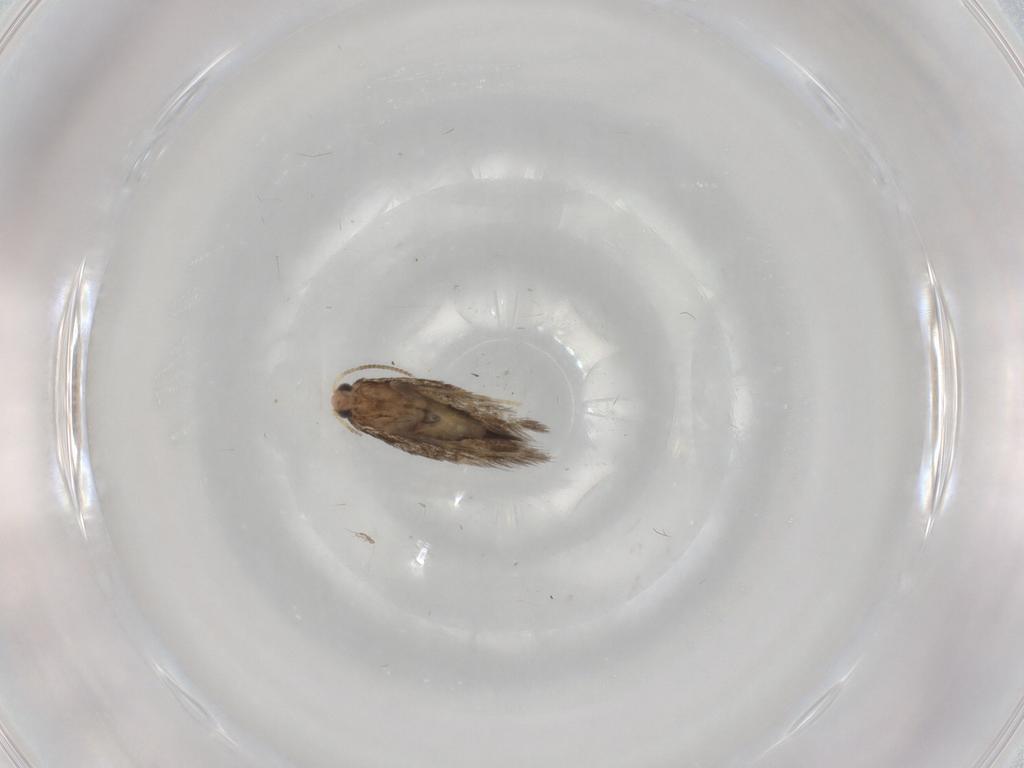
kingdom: Animalia
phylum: Arthropoda
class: Insecta
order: Lepidoptera
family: Nepticulidae
